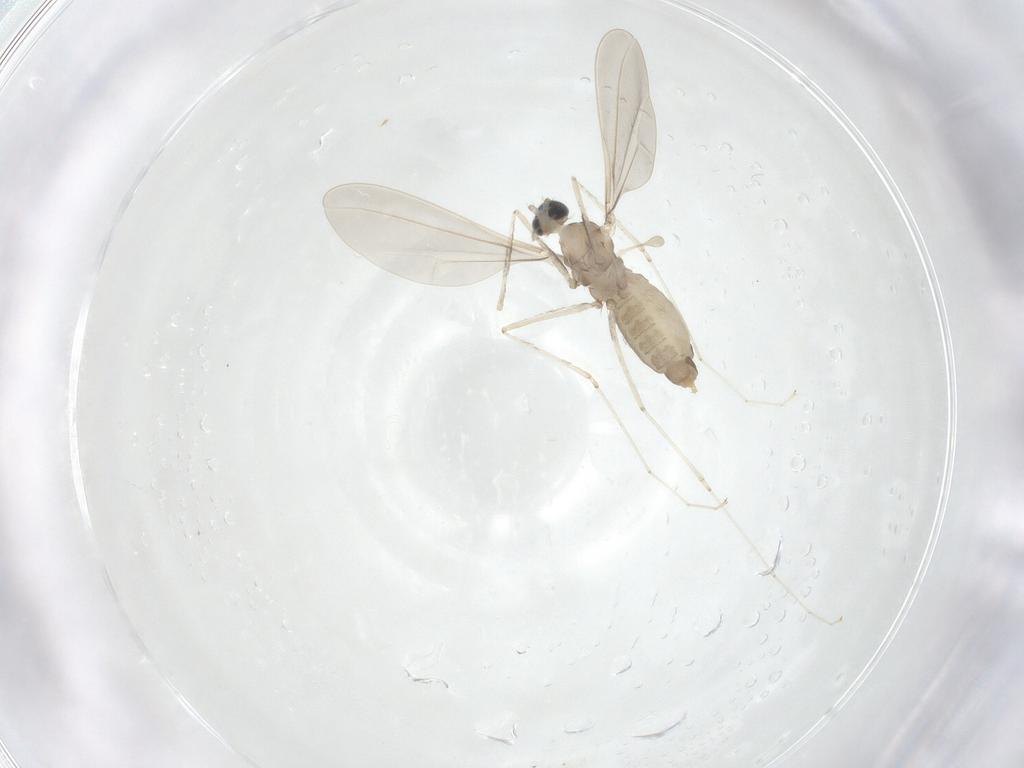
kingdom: Animalia
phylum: Arthropoda
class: Insecta
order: Diptera
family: Cecidomyiidae
